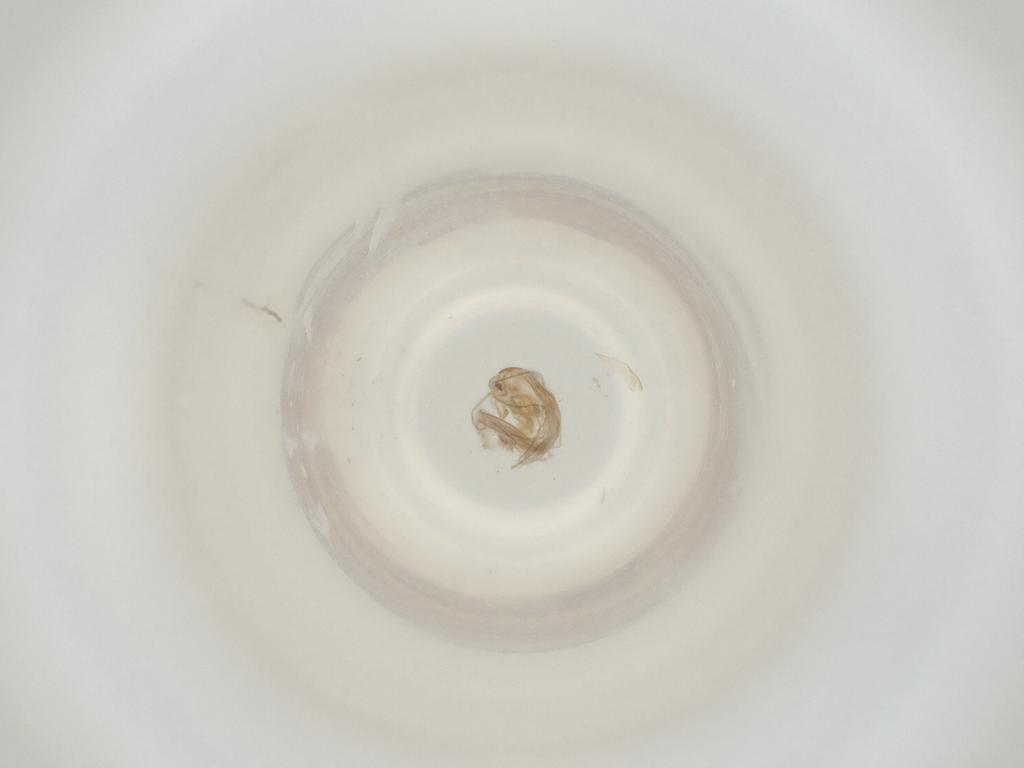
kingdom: Animalia
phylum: Arthropoda
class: Insecta
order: Diptera
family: Cecidomyiidae
